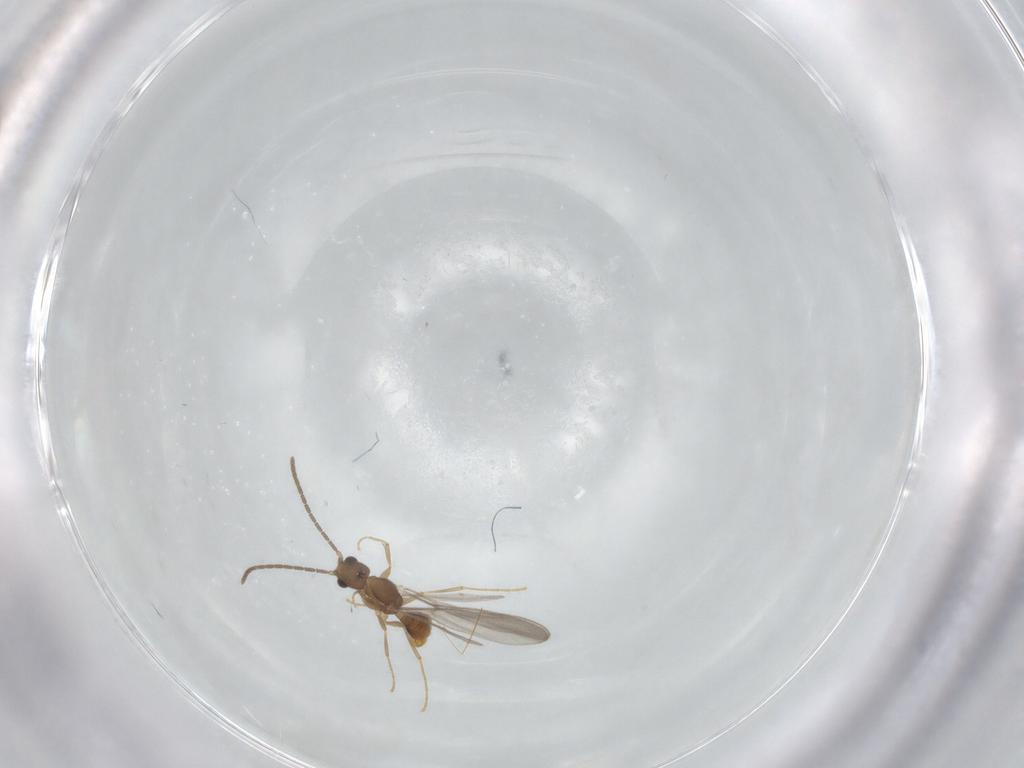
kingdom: Animalia
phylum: Arthropoda
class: Insecta
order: Hymenoptera
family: Formicidae
